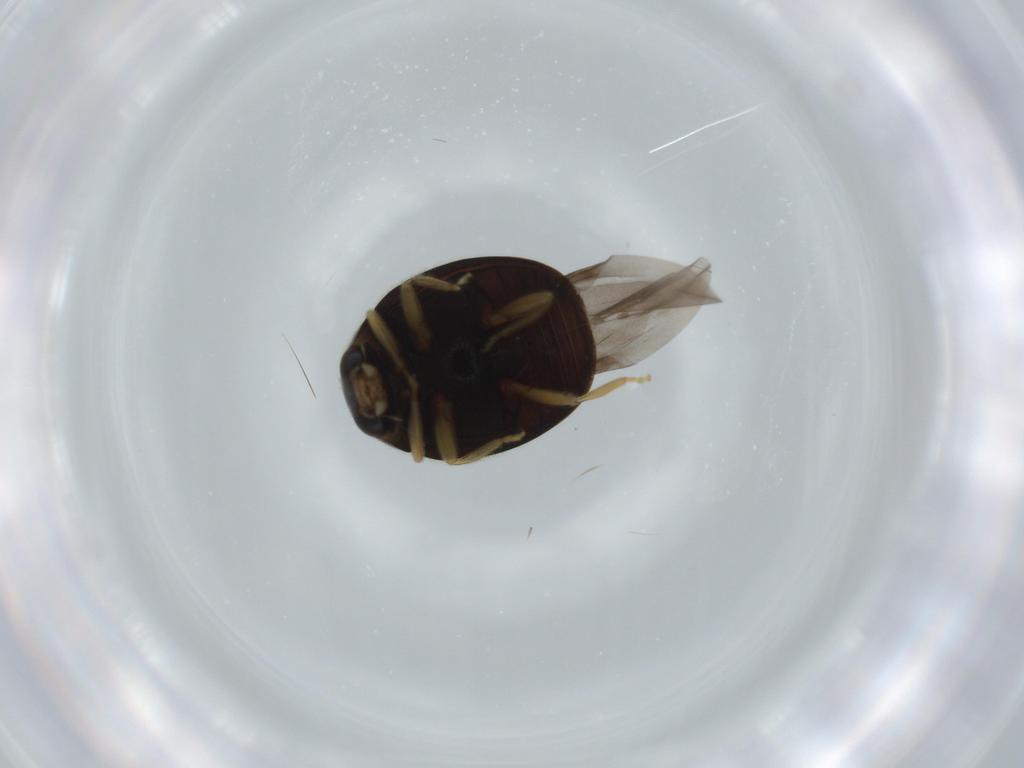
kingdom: Animalia
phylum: Arthropoda
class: Insecta
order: Coleoptera
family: Coccinellidae
